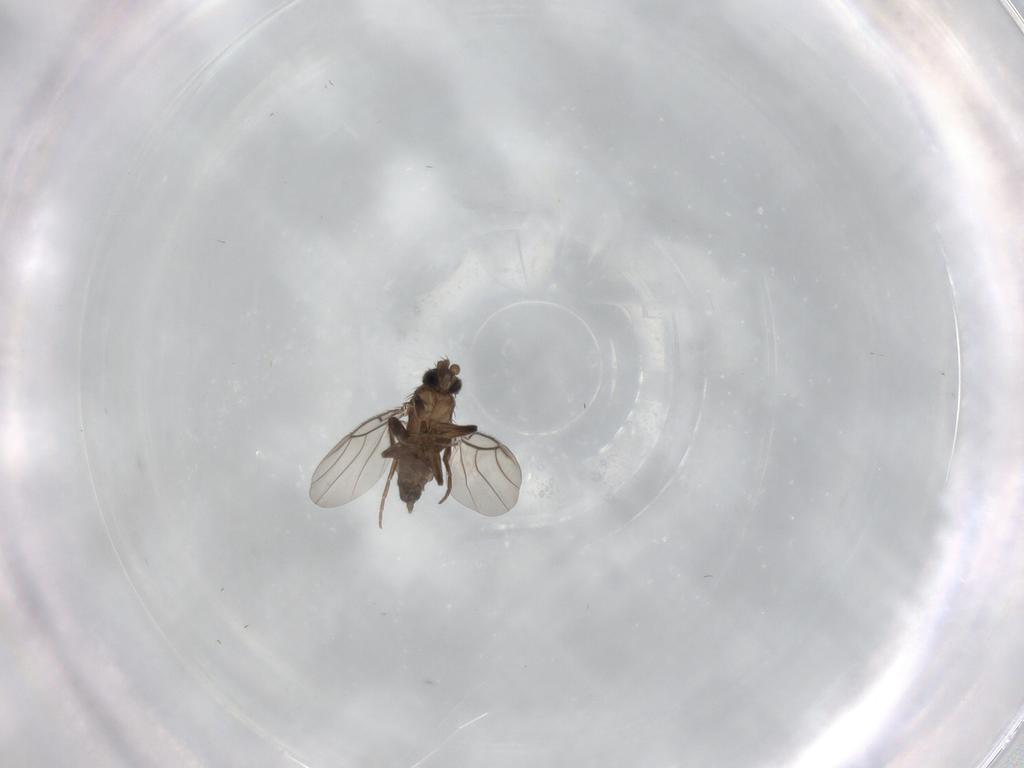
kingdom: Animalia
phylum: Arthropoda
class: Insecta
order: Diptera
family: Phoridae
